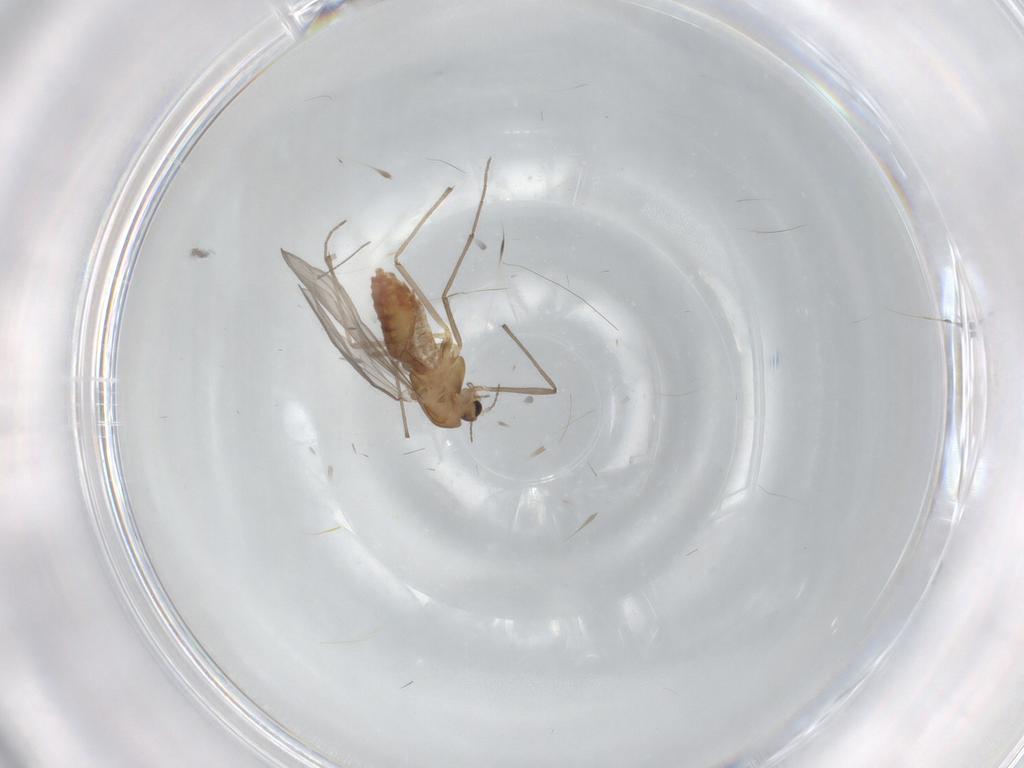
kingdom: Animalia
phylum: Arthropoda
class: Insecta
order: Diptera
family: Chironomidae
